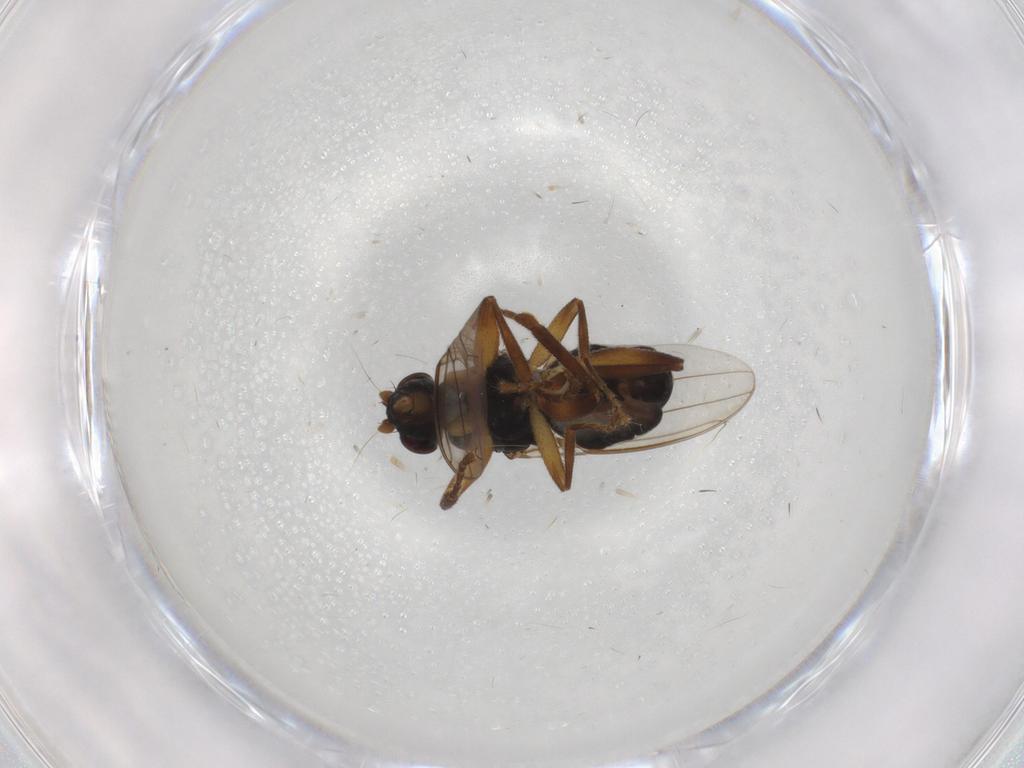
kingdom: Animalia
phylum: Arthropoda
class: Insecta
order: Diptera
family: Sphaeroceridae
